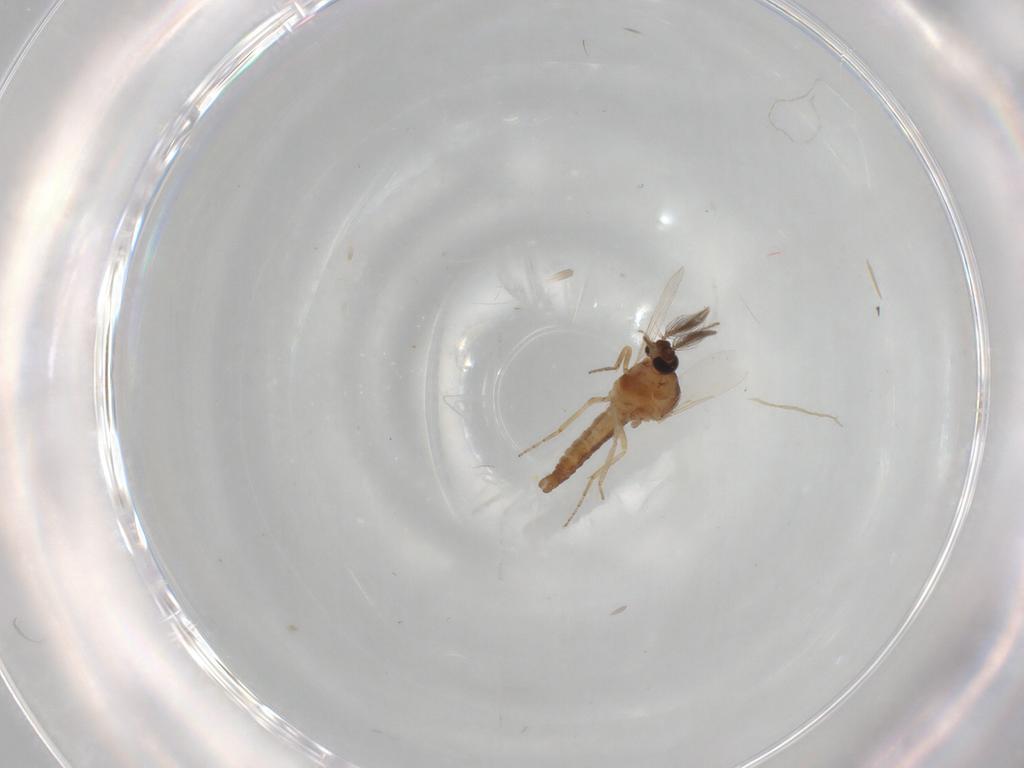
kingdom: Animalia
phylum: Arthropoda
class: Insecta
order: Diptera
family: Ceratopogonidae
